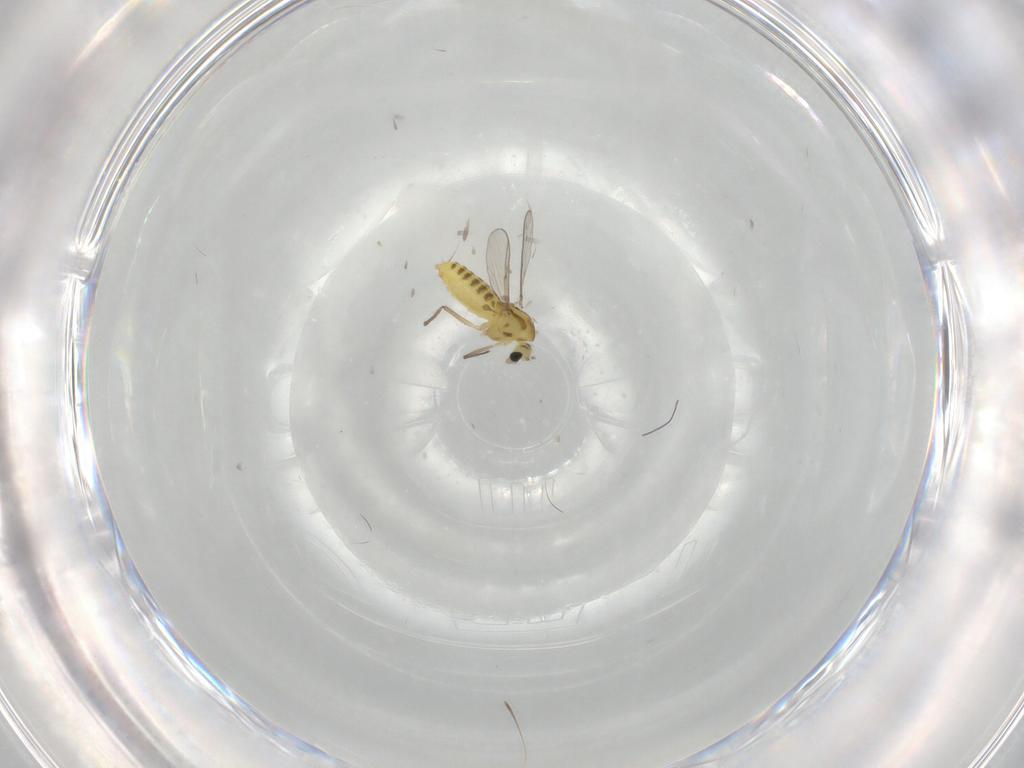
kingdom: Animalia
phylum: Arthropoda
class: Insecta
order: Diptera
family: Chironomidae
